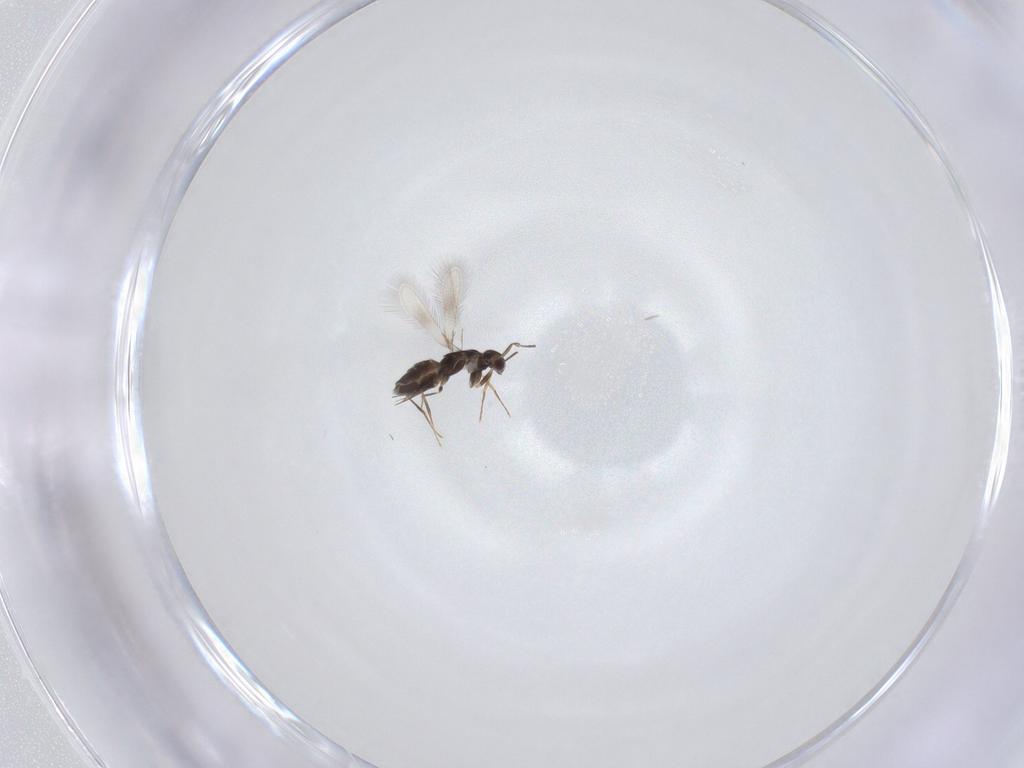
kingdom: Animalia
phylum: Arthropoda
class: Insecta
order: Hymenoptera
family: Mymaridae
